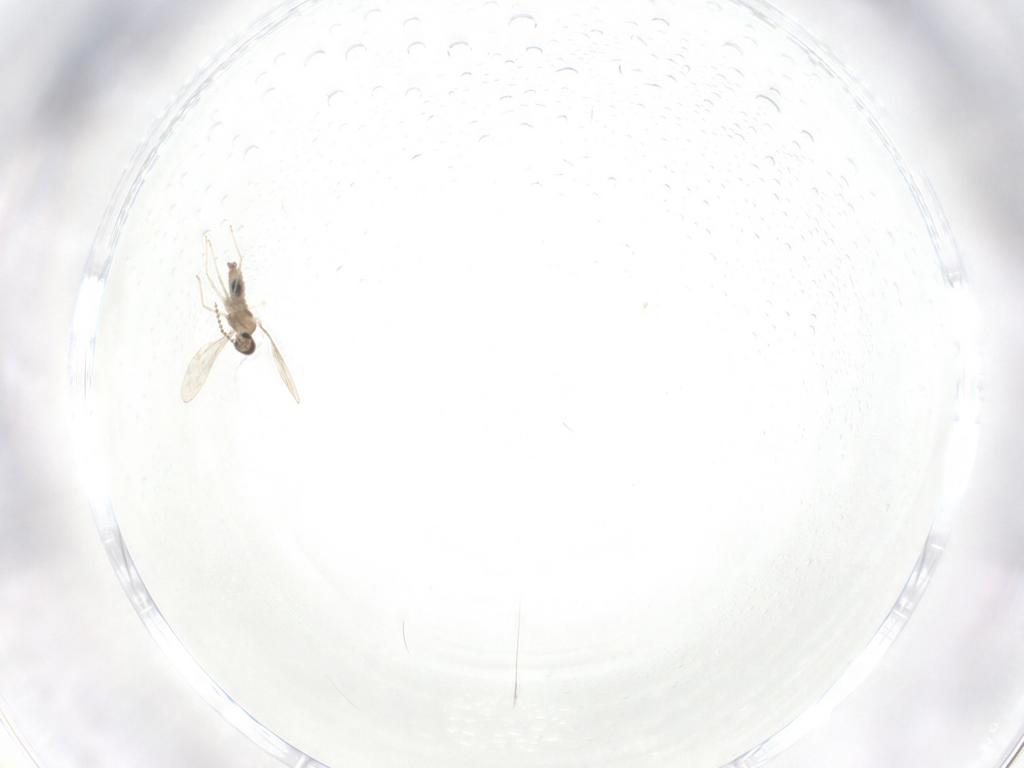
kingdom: Animalia
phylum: Arthropoda
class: Insecta
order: Diptera
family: Cecidomyiidae
